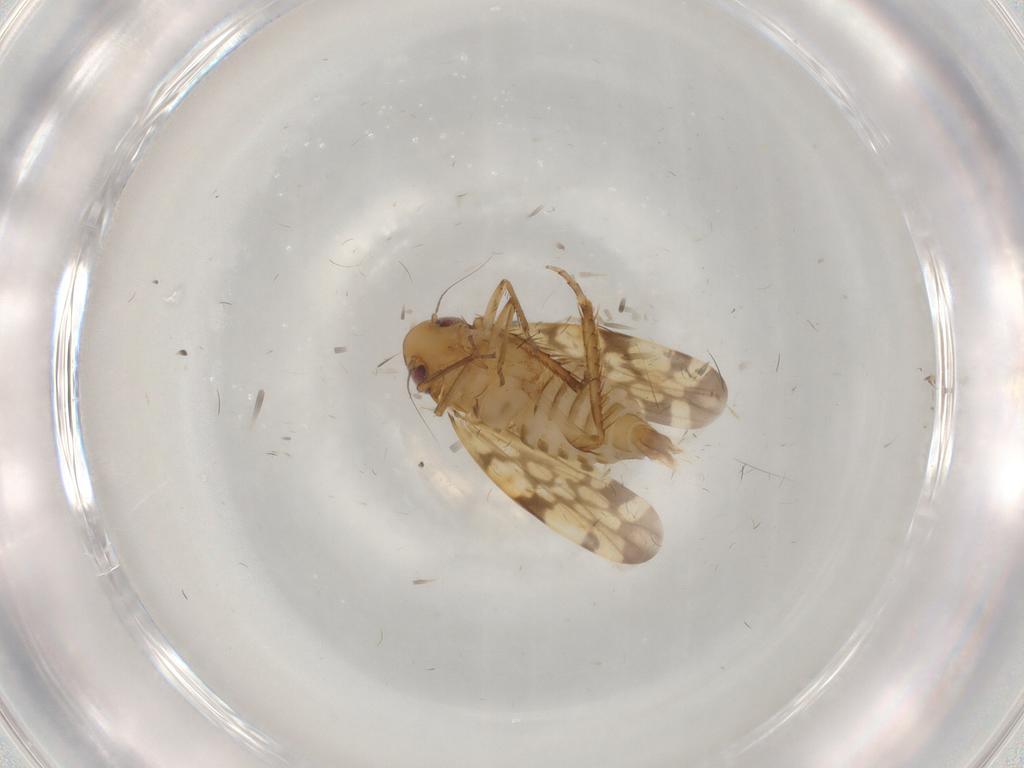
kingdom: Animalia
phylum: Arthropoda
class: Insecta
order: Hemiptera
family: Cicadellidae
